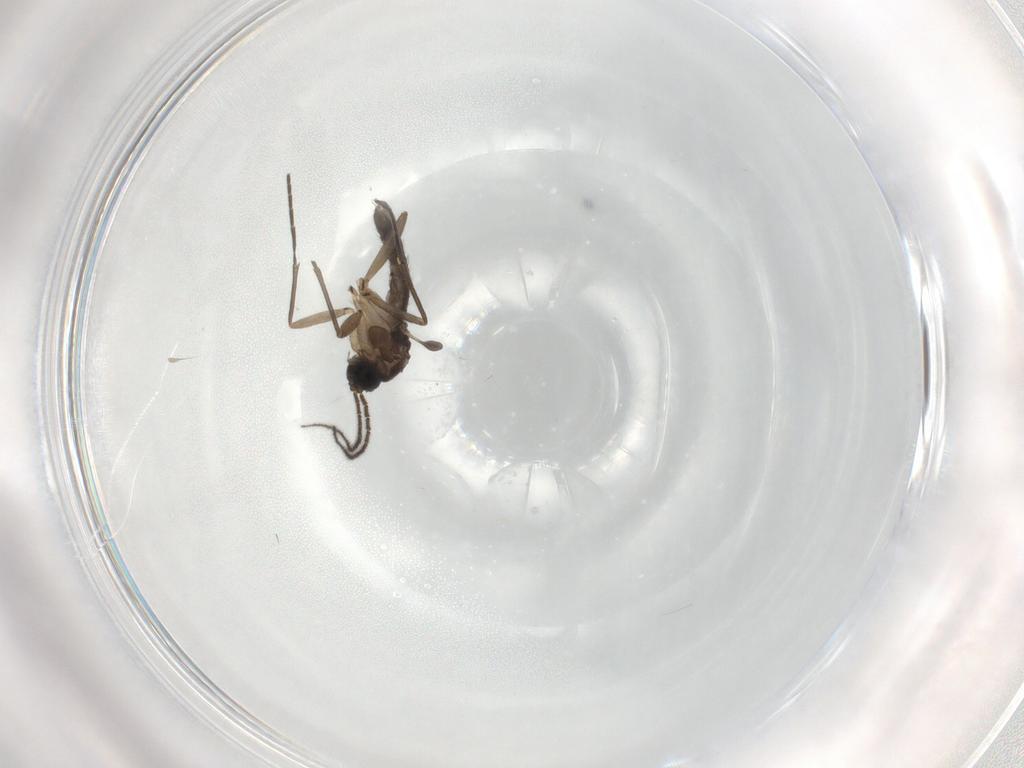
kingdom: Animalia
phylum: Arthropoda
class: Insecta
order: Diptera
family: Sciaridae
